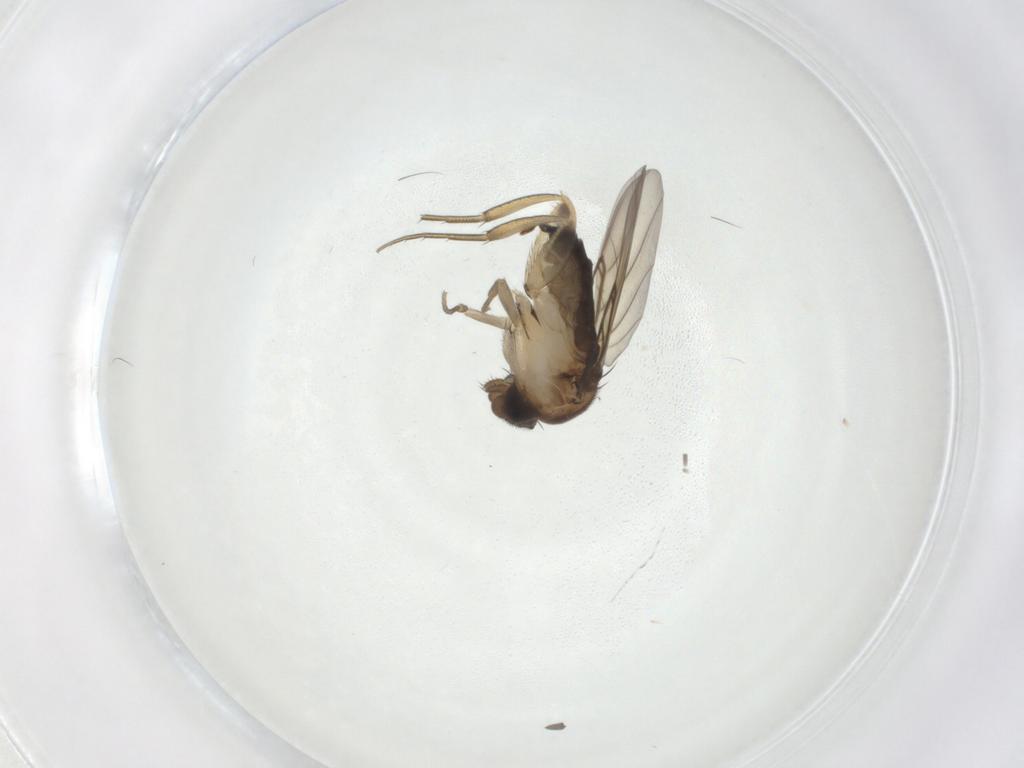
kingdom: Animalia
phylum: Arthropoda
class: Insecta
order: Diptera
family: Phoridae
